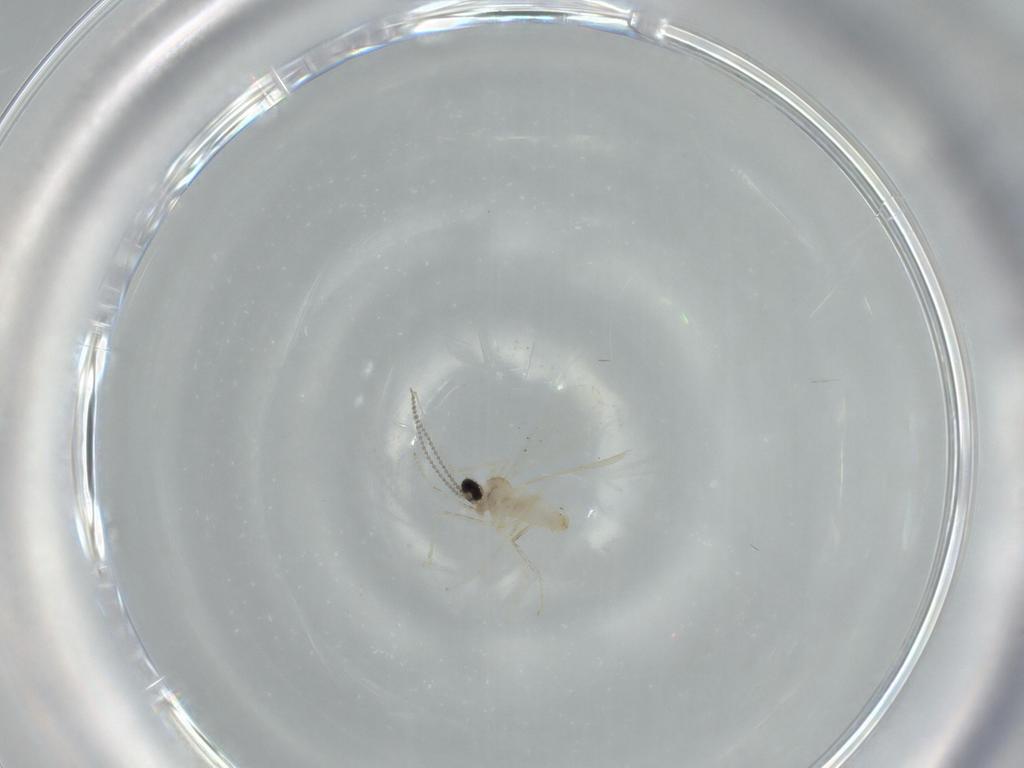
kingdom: Animalia
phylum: Arthropoda
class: Insecta
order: Diptera
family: Cecidomyiidae
